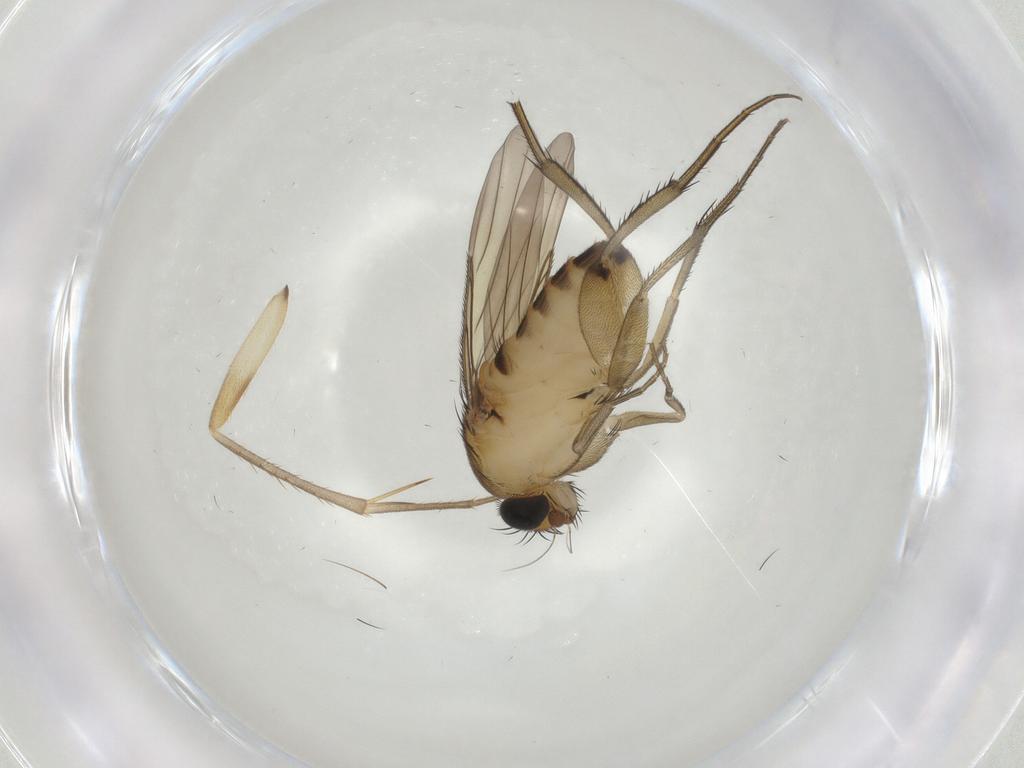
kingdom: Animalia
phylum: Arthropoda
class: Insecta
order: Diptera
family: Phoridae
